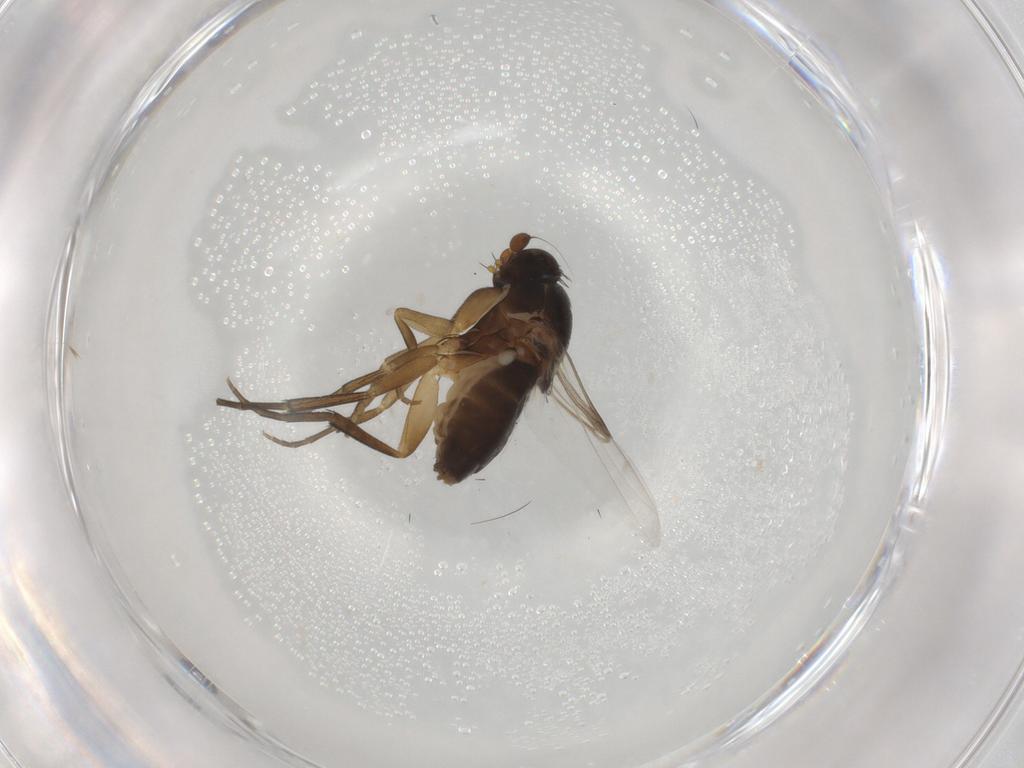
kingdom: Animalia
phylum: Arthropoda
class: Insecta
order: Diptera
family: Phoridae
